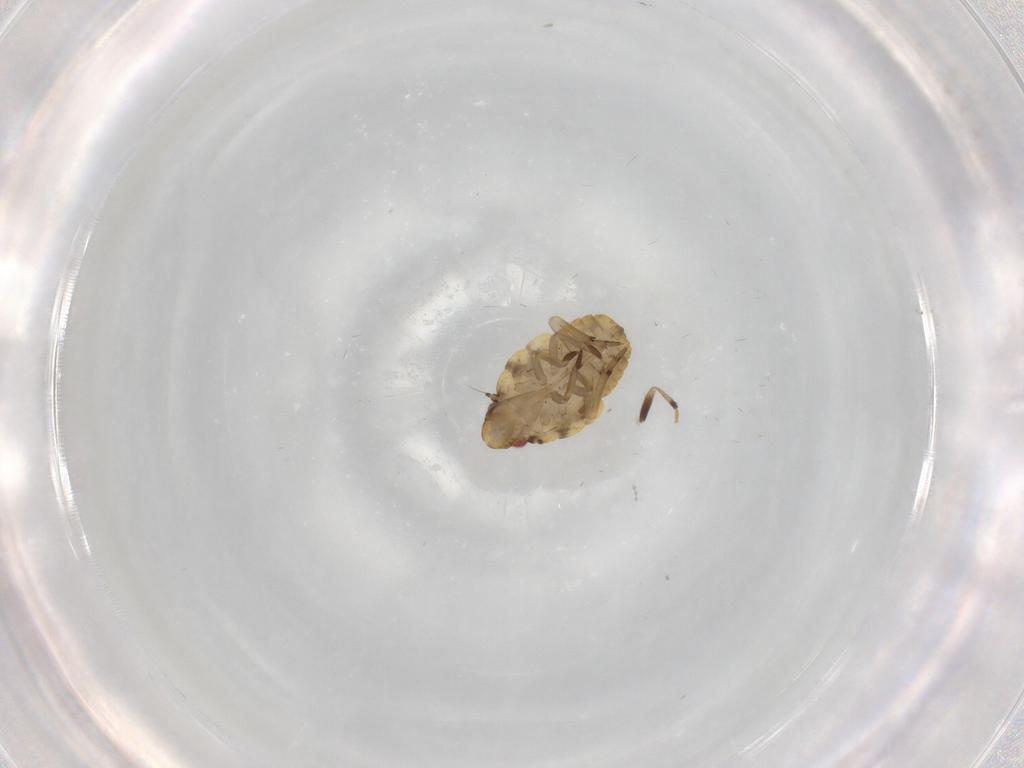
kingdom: Animalia
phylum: Arthropoda
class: Insecta
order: Hemiptera
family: Flatidae
